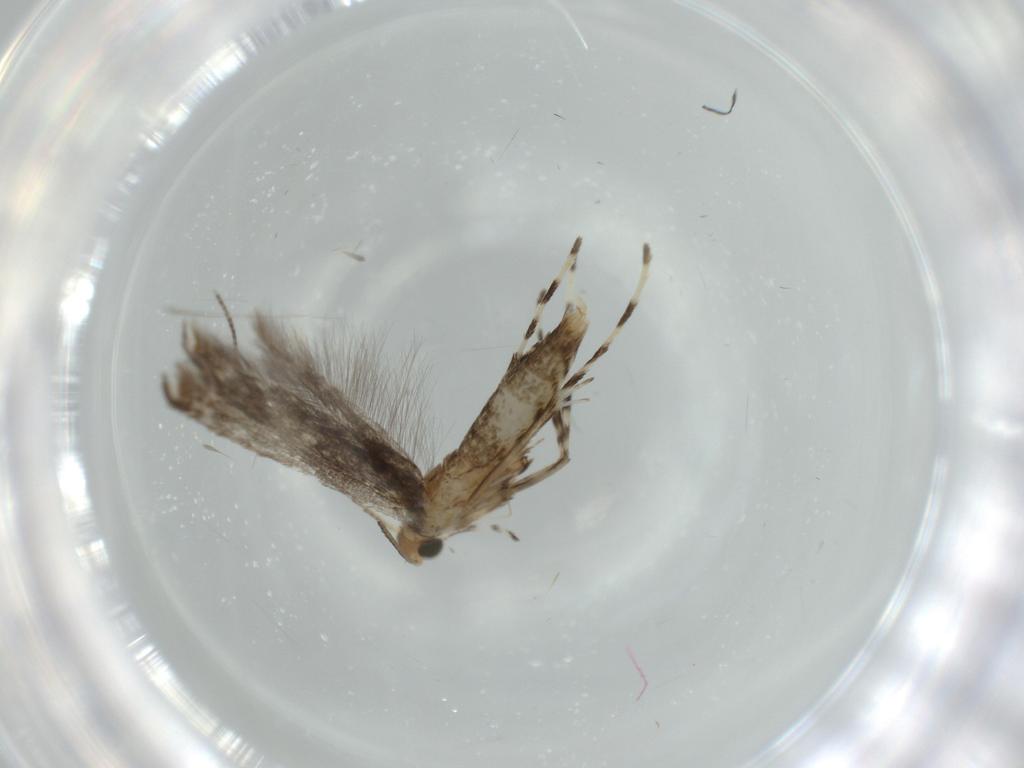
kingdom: Animalia
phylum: Arthropoda
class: Insecta
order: Lepidoptera
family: Gracillariidae
